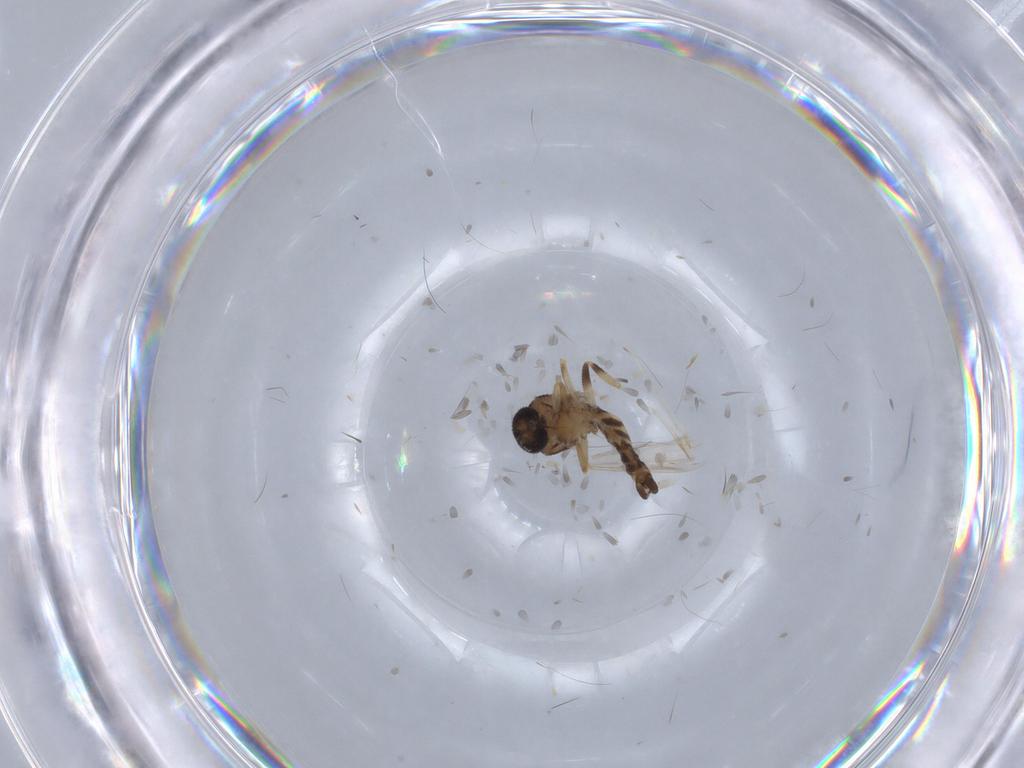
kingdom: Animalia
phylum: Arthropoda
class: Insecta
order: Diptera
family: Ceratopogonidae
